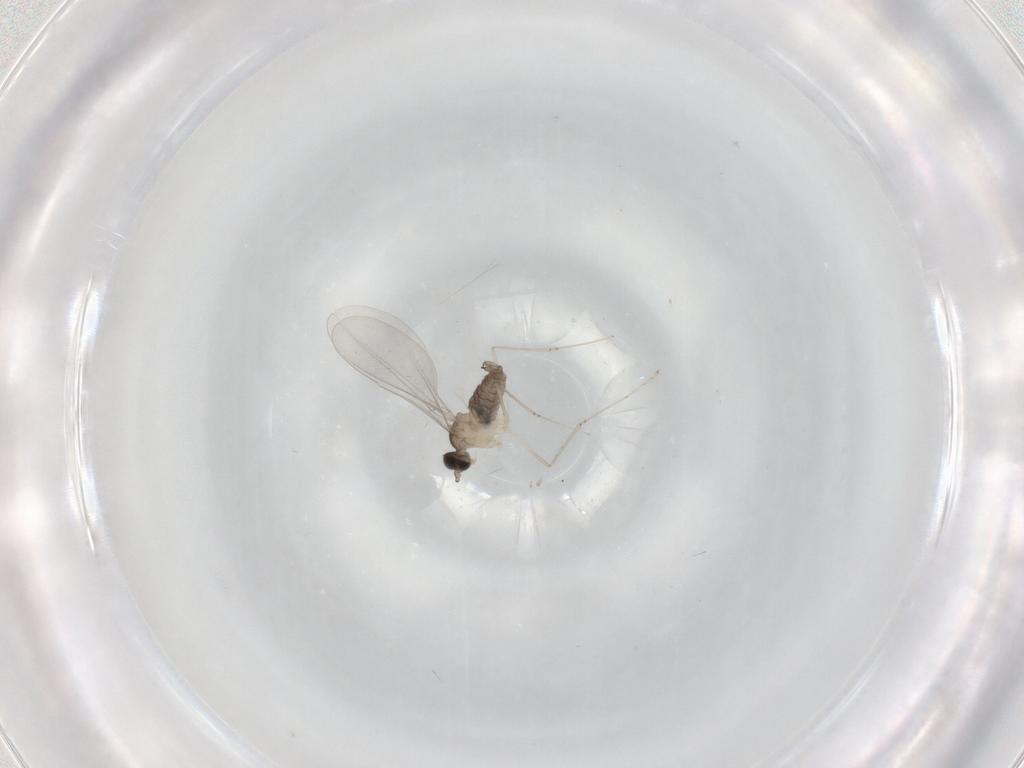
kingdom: Animalia
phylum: Arthropoda
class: Insecta
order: Diptera
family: Cecidomyiidae
